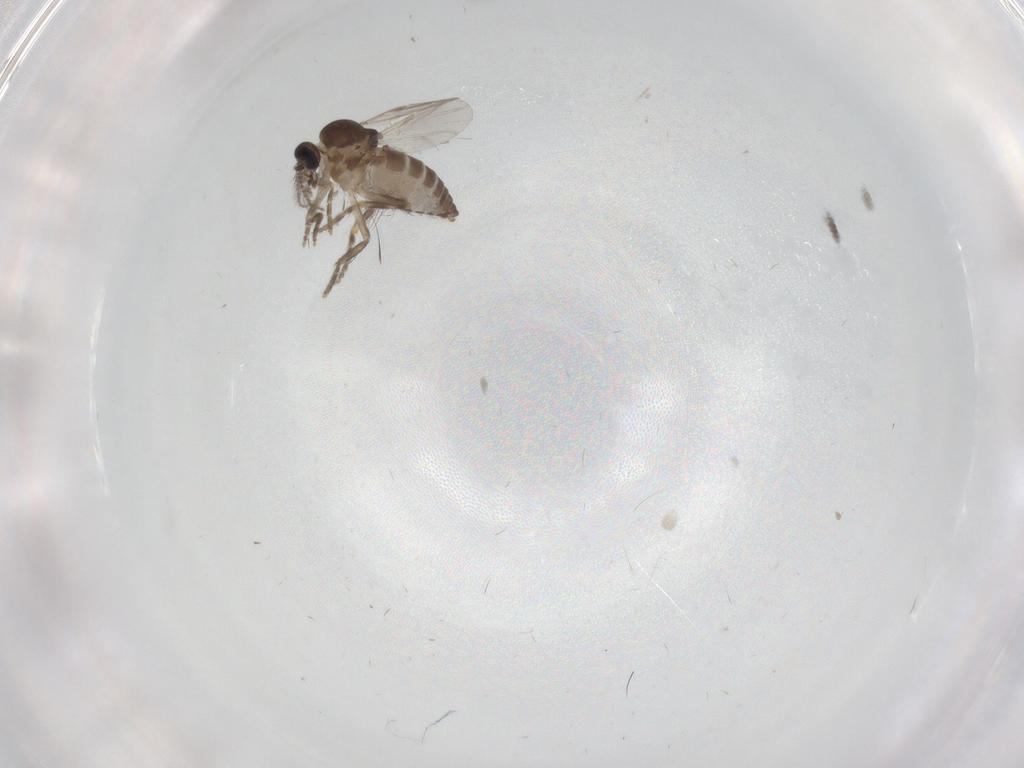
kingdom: Animalia
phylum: Arthropoda
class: Insecta
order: Diptera
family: Ceratopogonidae
